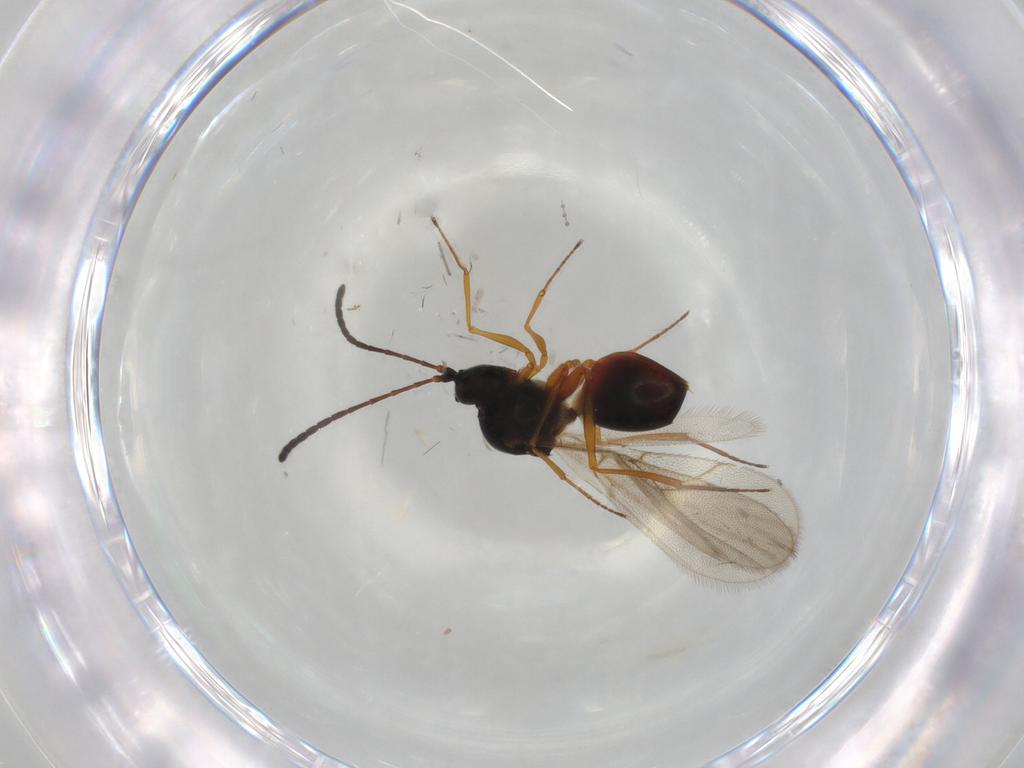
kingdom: Animalia
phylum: Arthropoda
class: Insecta
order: Hymenoptera
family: Figitidae
